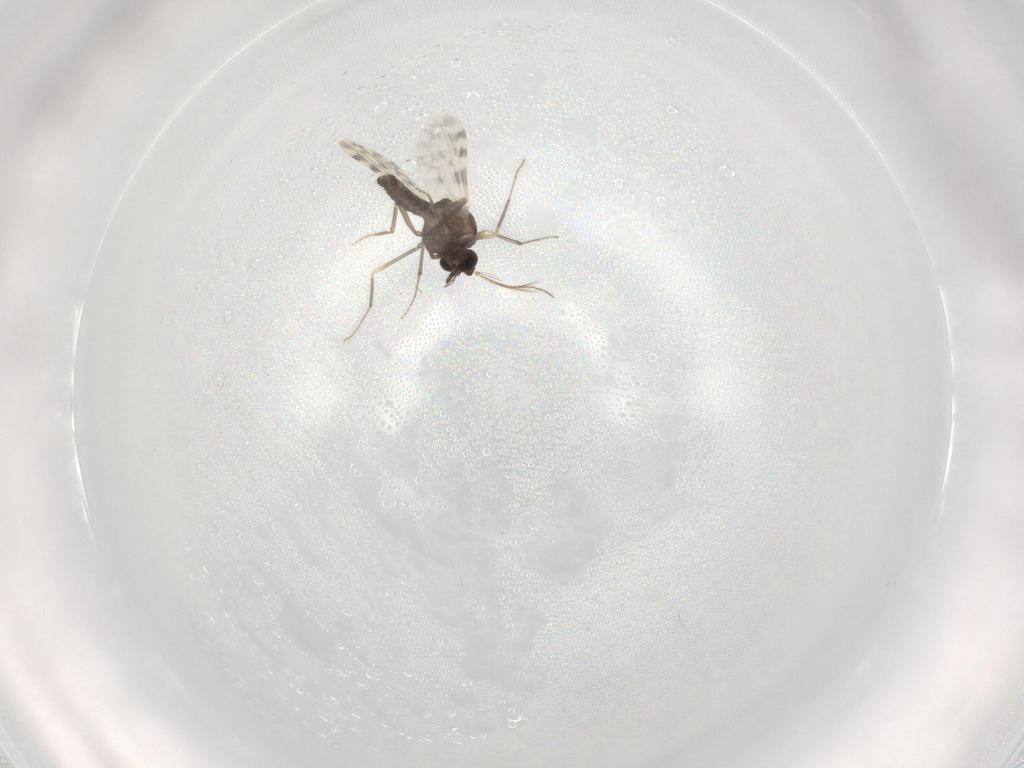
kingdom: Animalia
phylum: Arthropoda
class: Insecta
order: Diptera
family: Ceratopogonidae
